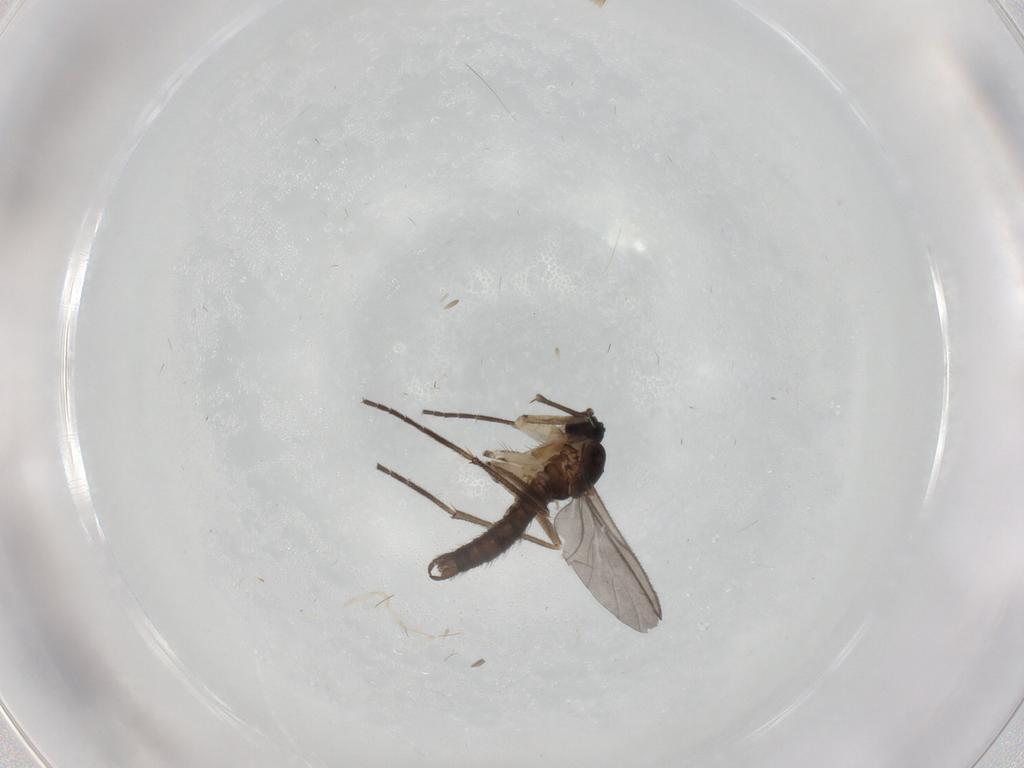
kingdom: Animalia
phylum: Arthropoda
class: Insecta
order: Diptera
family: Sciaridae
